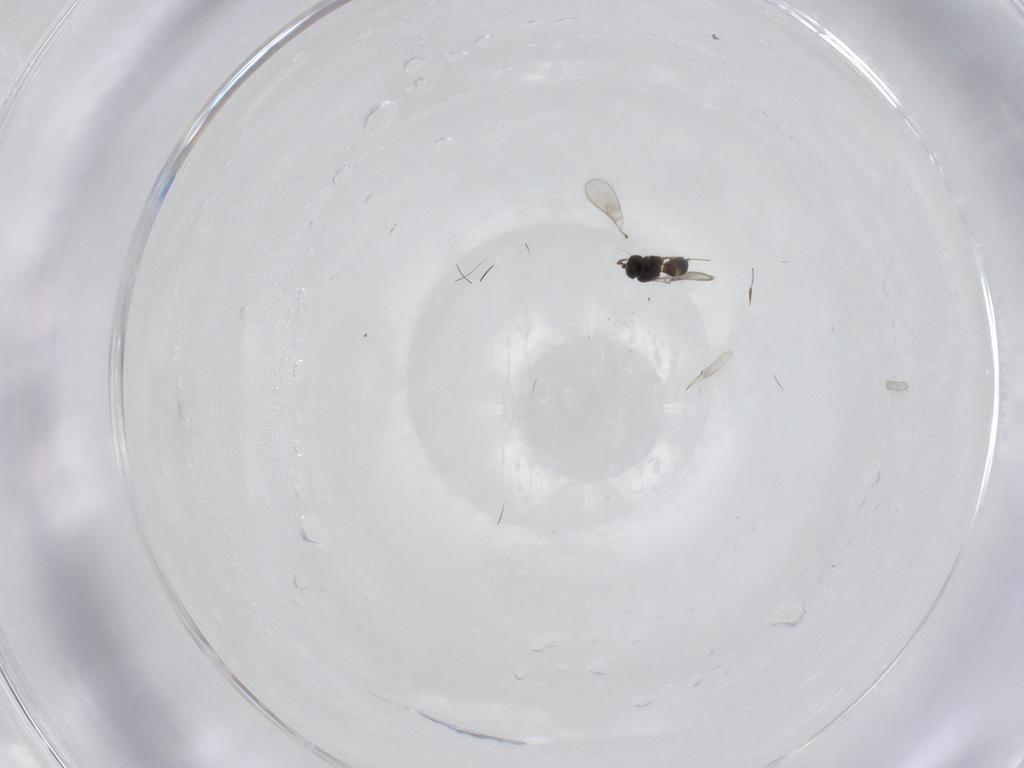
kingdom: Animalia
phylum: Arthropoda
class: Insecta
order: Hymenoptera
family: Scelionidae
